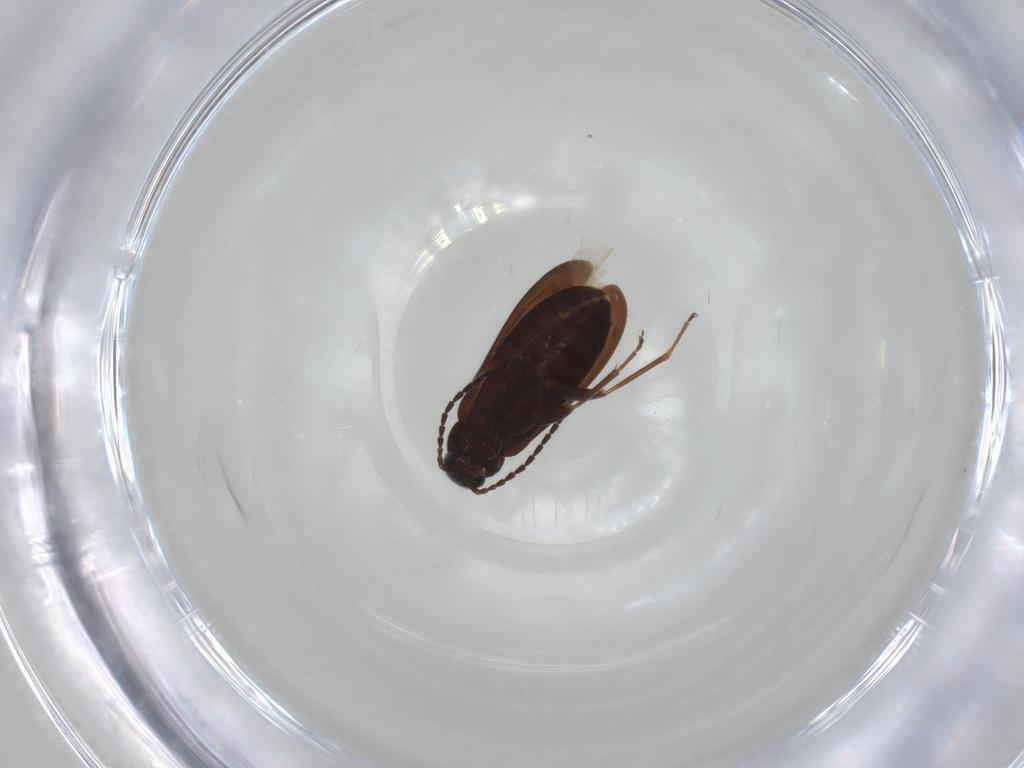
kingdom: Animalia
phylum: Arthropoda
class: Insecta
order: Coleoptera
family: Scraptiidae
